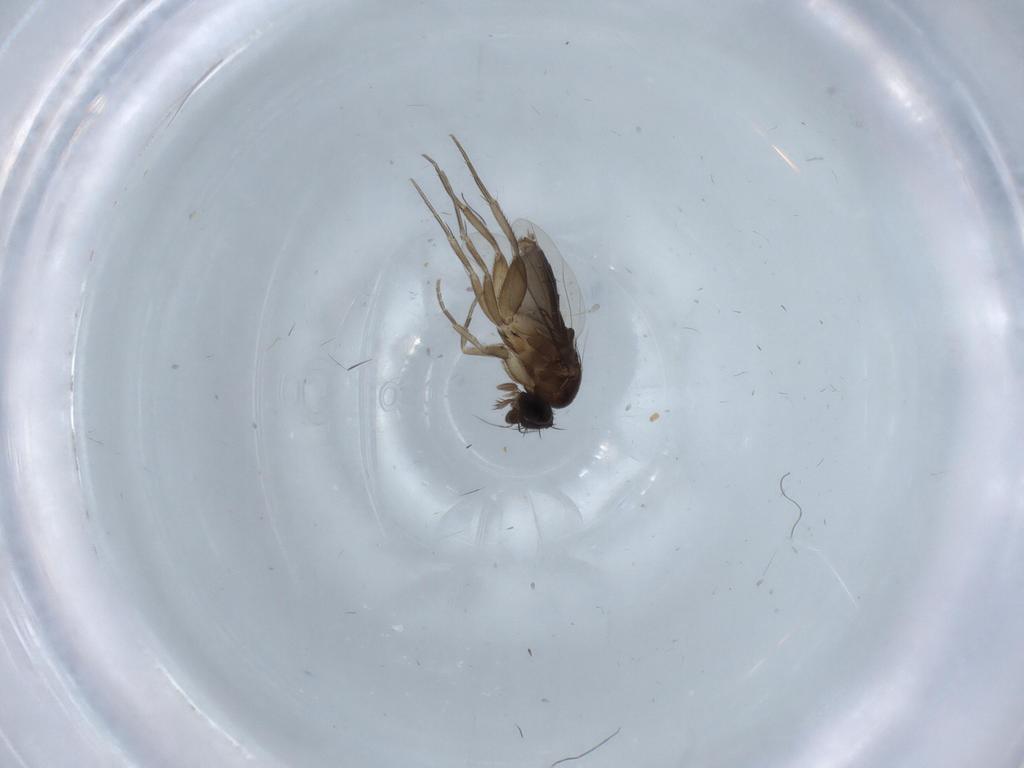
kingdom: Animalia
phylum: Arthropoda
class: Insecta
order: Diptera
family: Phoridae
